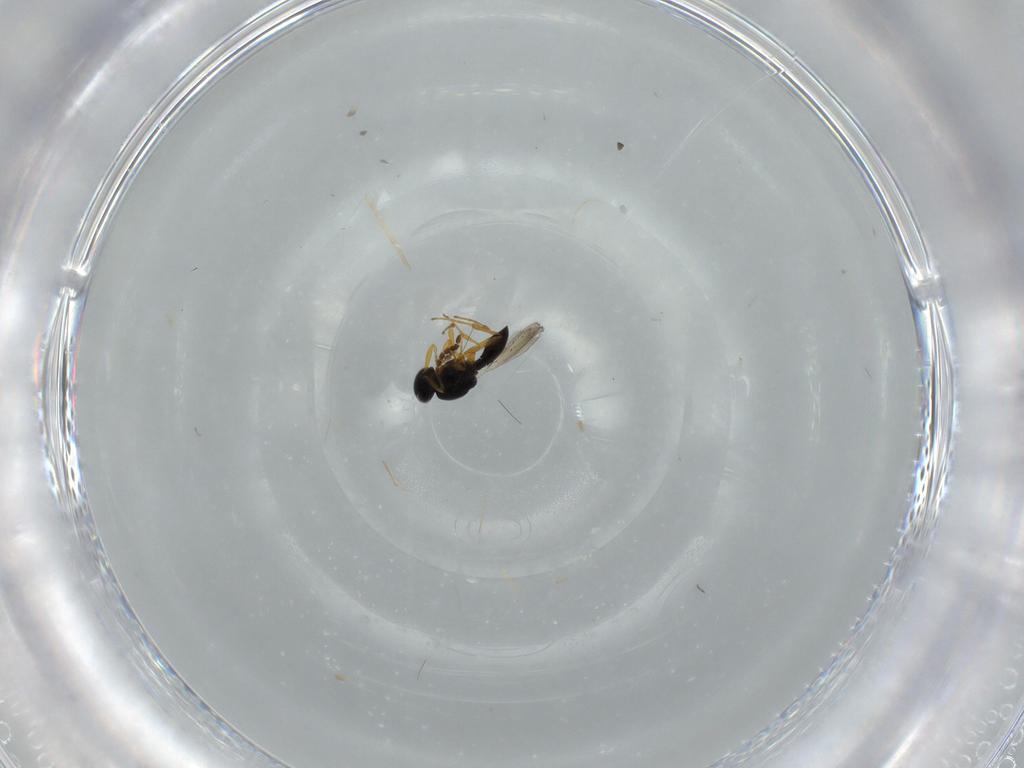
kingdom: Animalia
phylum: Arthropoda
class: Insecta
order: Hymenoptera
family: Platygastridae
